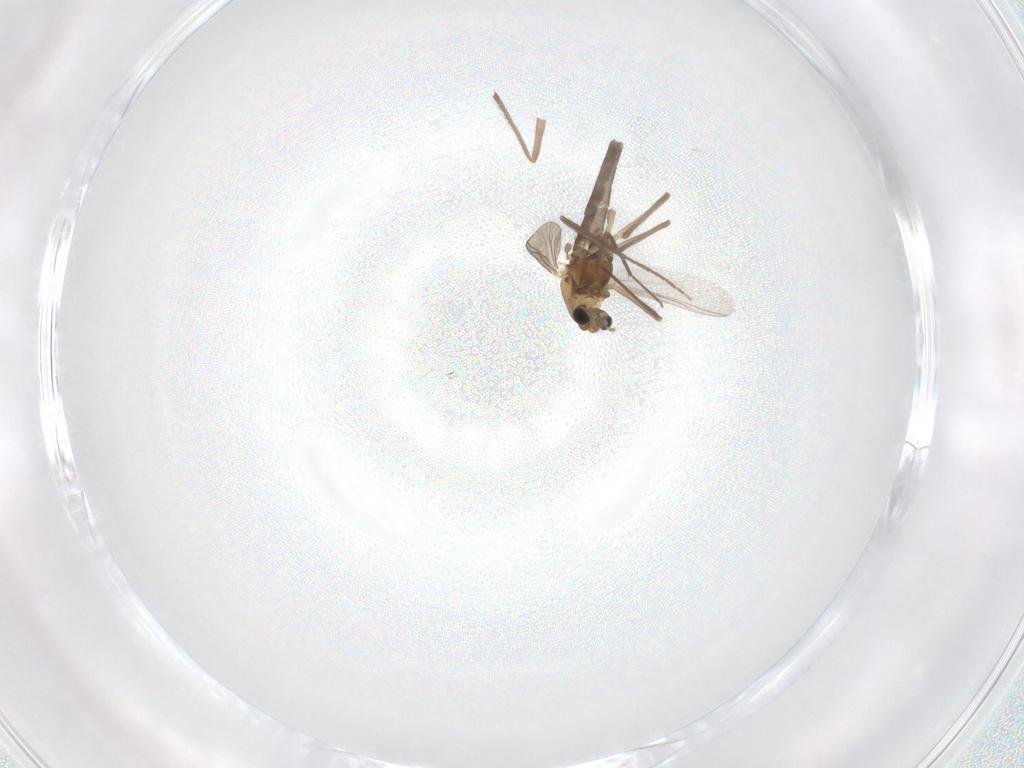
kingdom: Animalia
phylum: Arthropoda
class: Insecta
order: Diptera
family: Chironomidae
